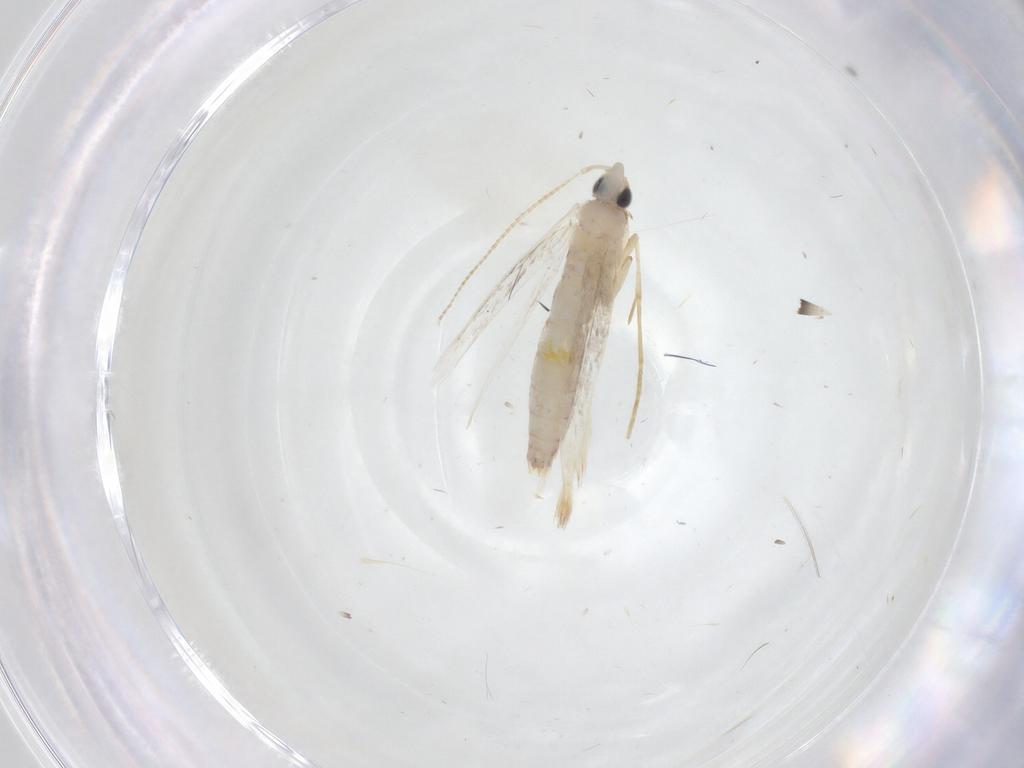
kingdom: Animalia
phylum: Arthropoda
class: Insecta
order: Lepidoptera
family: Tineidae
